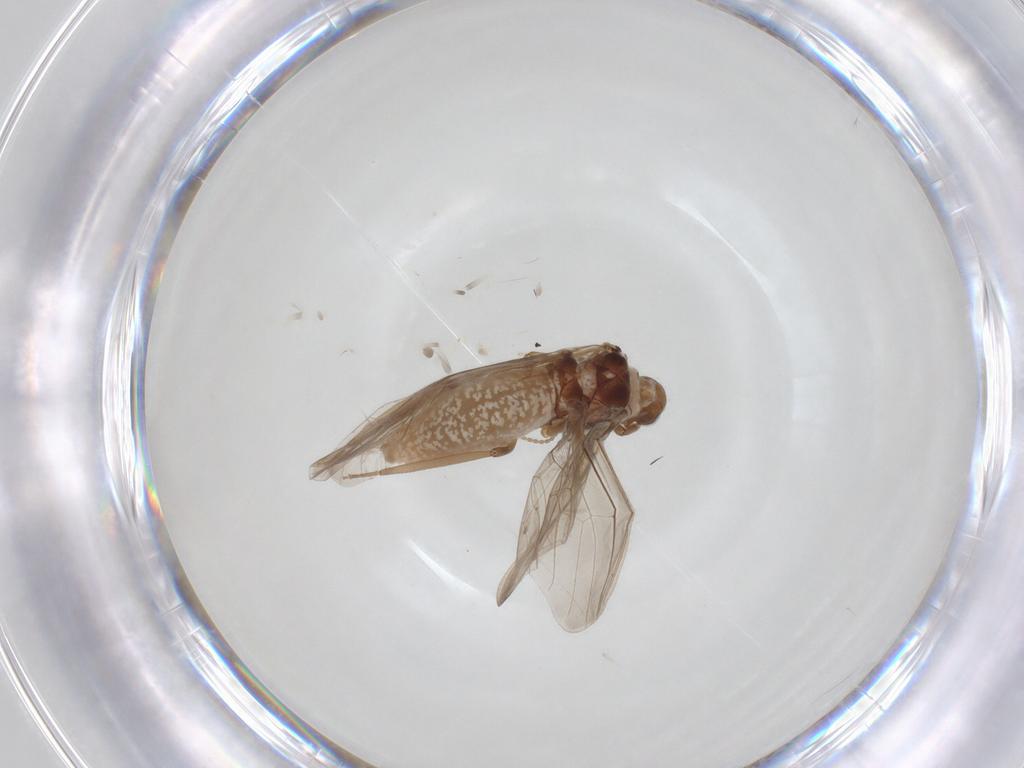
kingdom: Animalia
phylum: Arthropoda
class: Insecta
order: Neuroptera
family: Coniopterygidae
